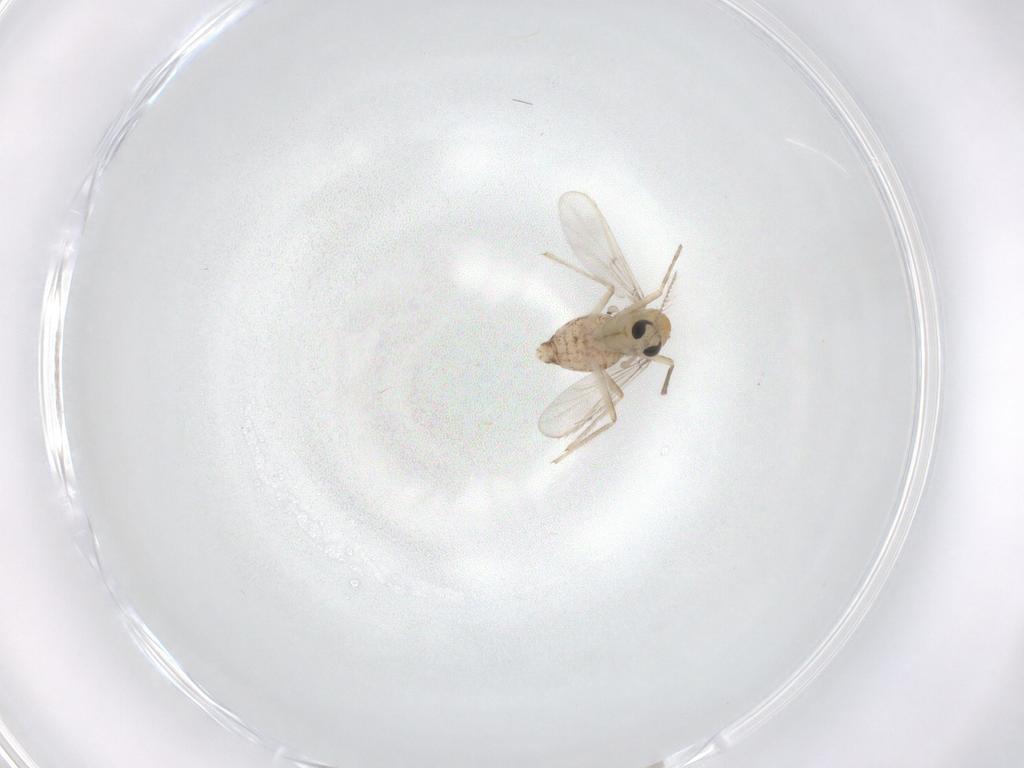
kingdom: Animalia
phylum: Arthropoda
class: Insecta
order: Diptera
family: Chironomidae
